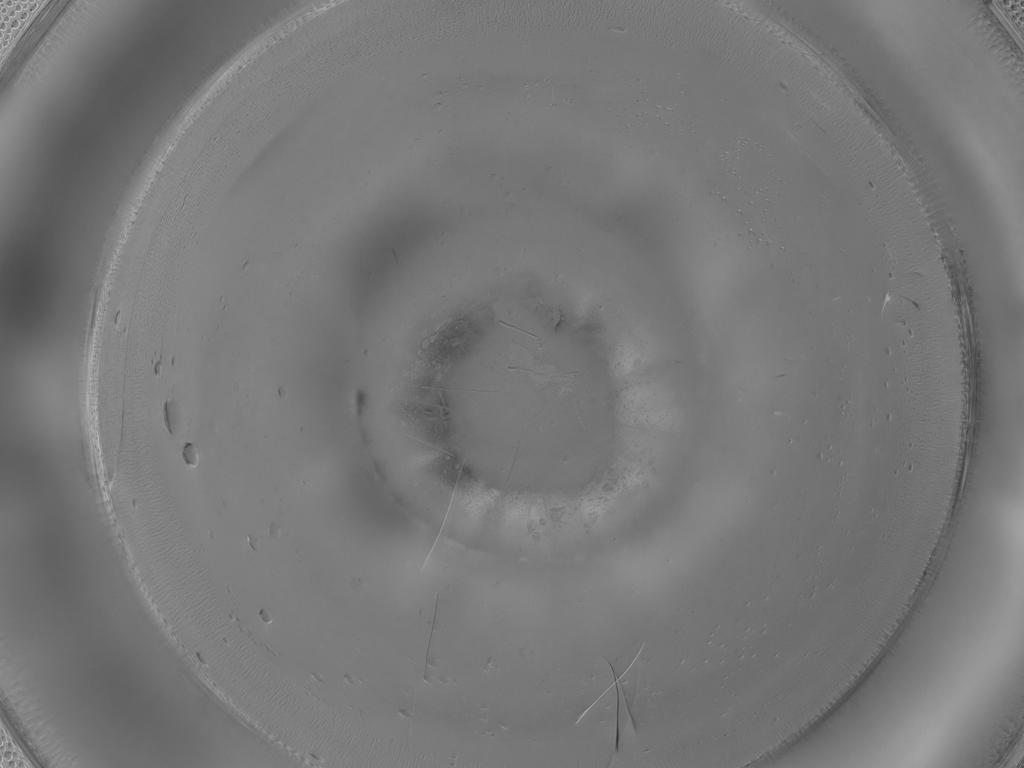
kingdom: Animalia
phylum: Arthropoda
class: Insecta
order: Diptera
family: Cecidomyiidae
